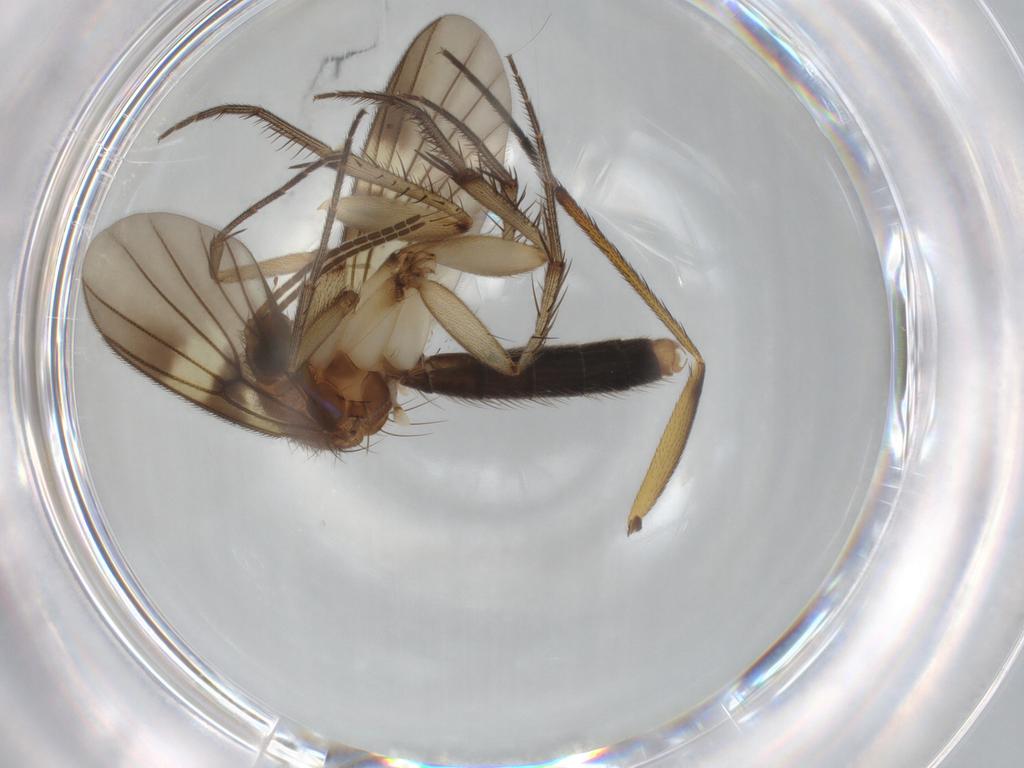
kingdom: Animalia
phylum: Arthropoda
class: Insecta
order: Diptera
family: Dolichopodidae
